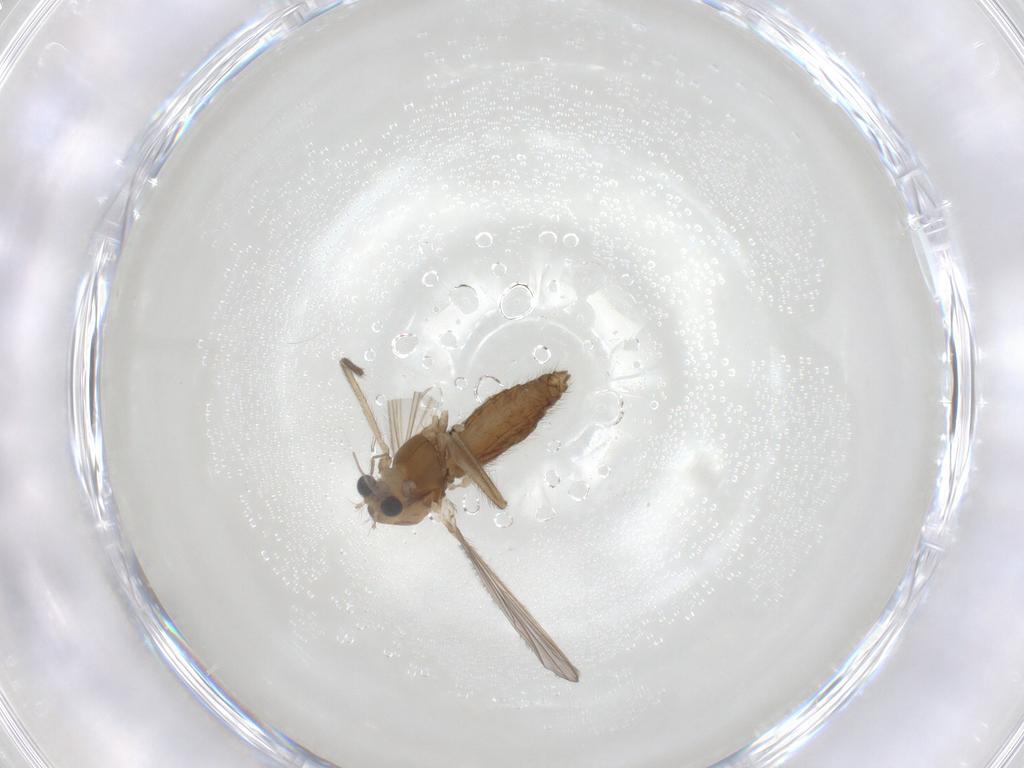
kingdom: Animalia
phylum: Arthropoda
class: Insecta
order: Diptera
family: Chironomidae
